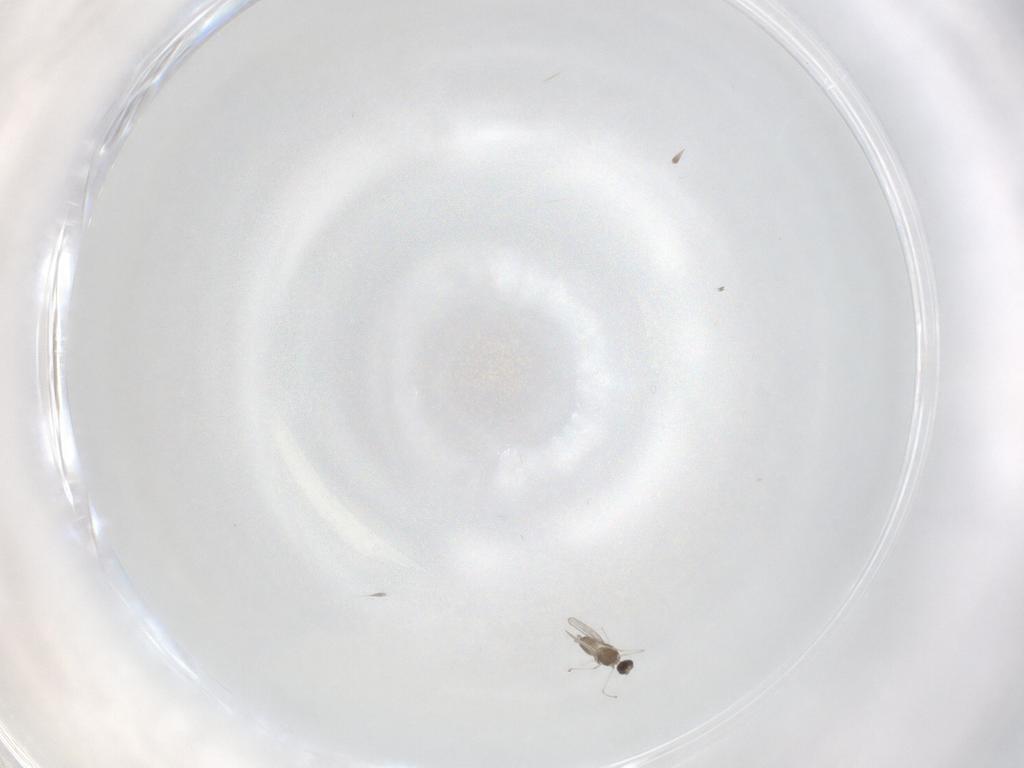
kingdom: Animalia
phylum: Arthropoda
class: Insecta
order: Diptera
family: Cecidomyiidae
